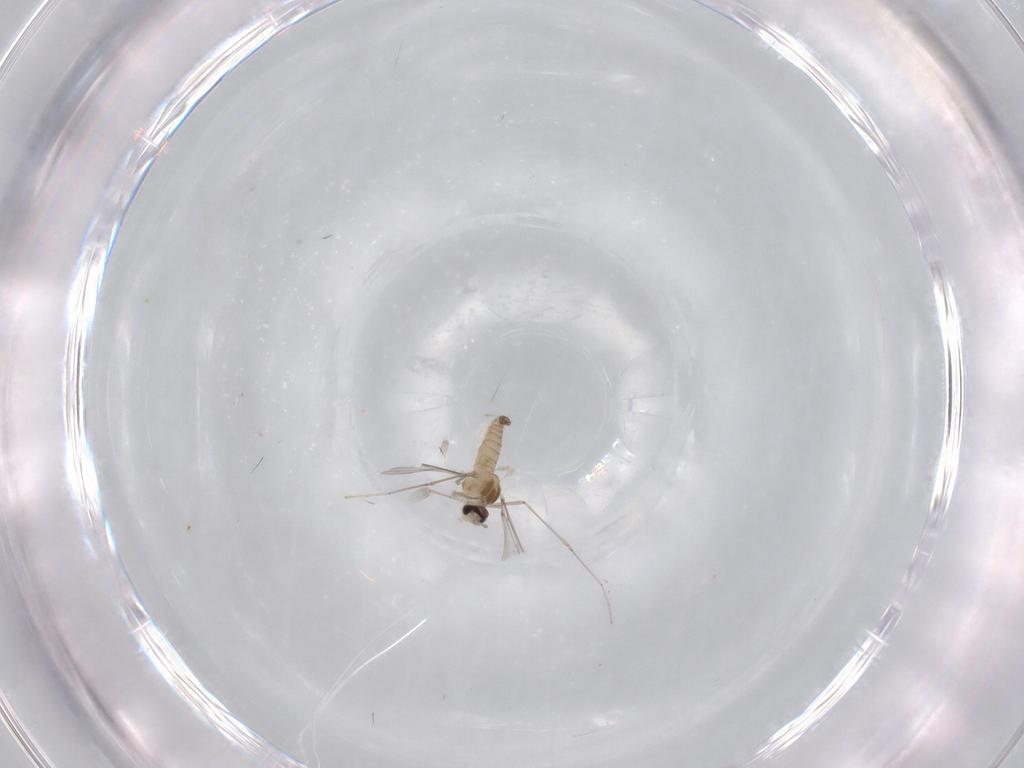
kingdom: Animalia
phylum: Arthropoda
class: Insecta
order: Diptera
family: Cecidomyiidae
